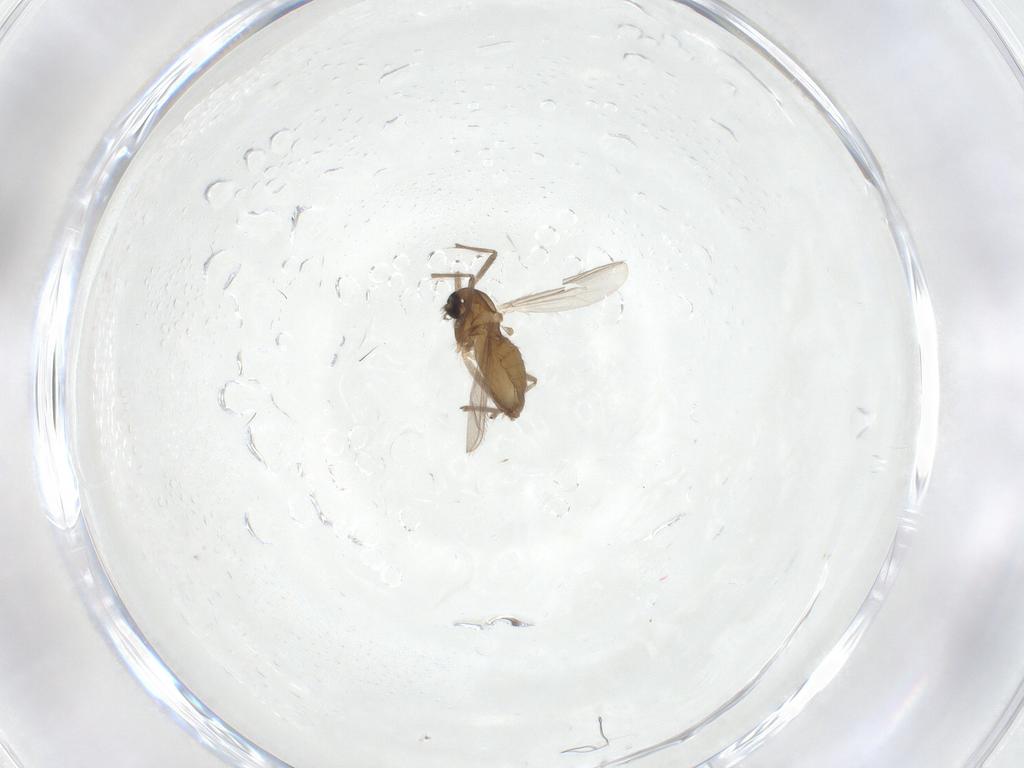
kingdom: Animalia
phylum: Arthropoda
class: Insecta
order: Diptera
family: Chironomidae
